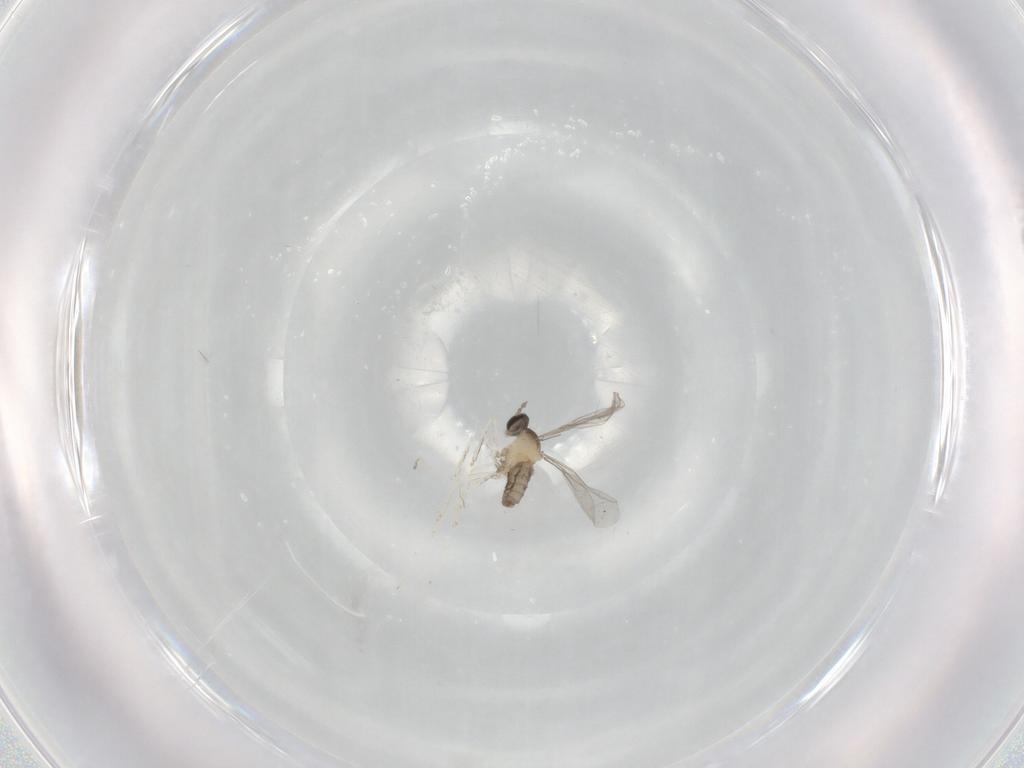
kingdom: Animalia
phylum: Arthropoda
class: Insecta
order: Diptera
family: Cecidomyiidae
